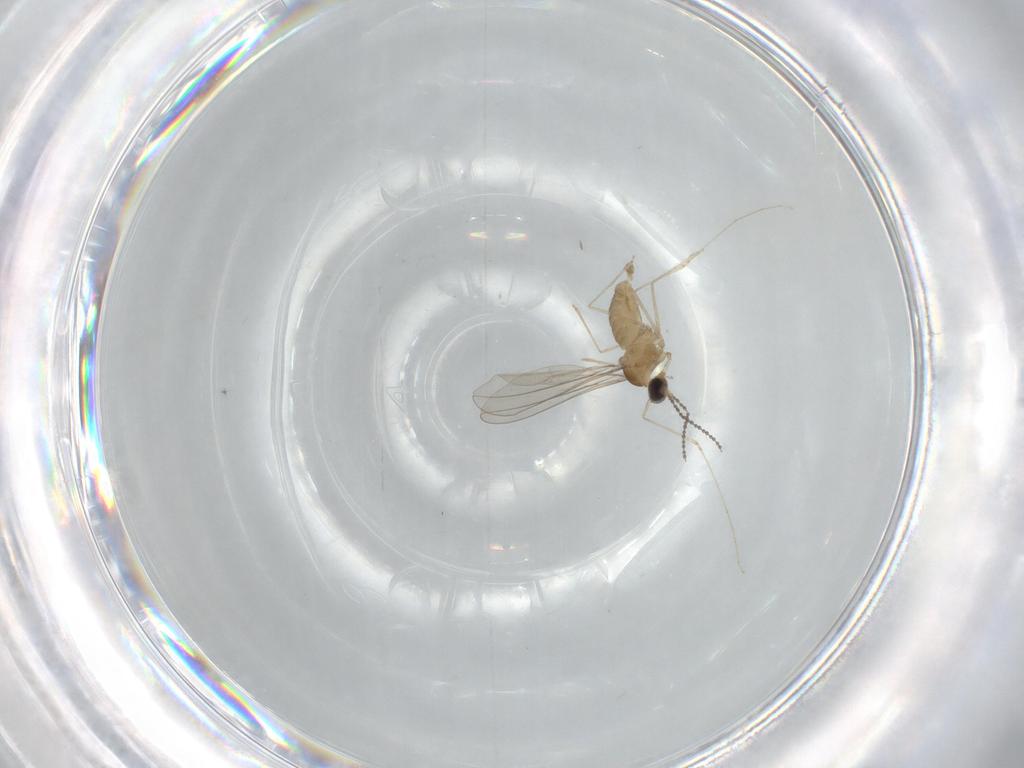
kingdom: Animalia
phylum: Arthropoda
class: Insecta
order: Diptera
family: Cecidomyiidae
